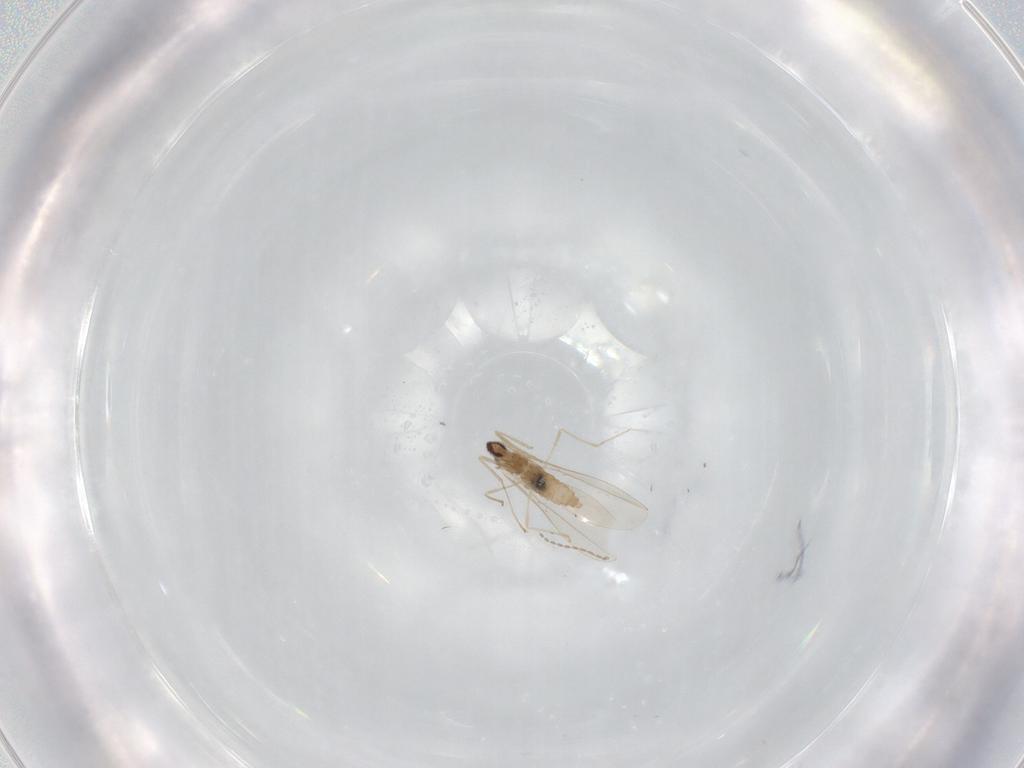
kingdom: Animalia
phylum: Arthropoda
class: Insecta
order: Diptera
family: Cecidomyiidae
